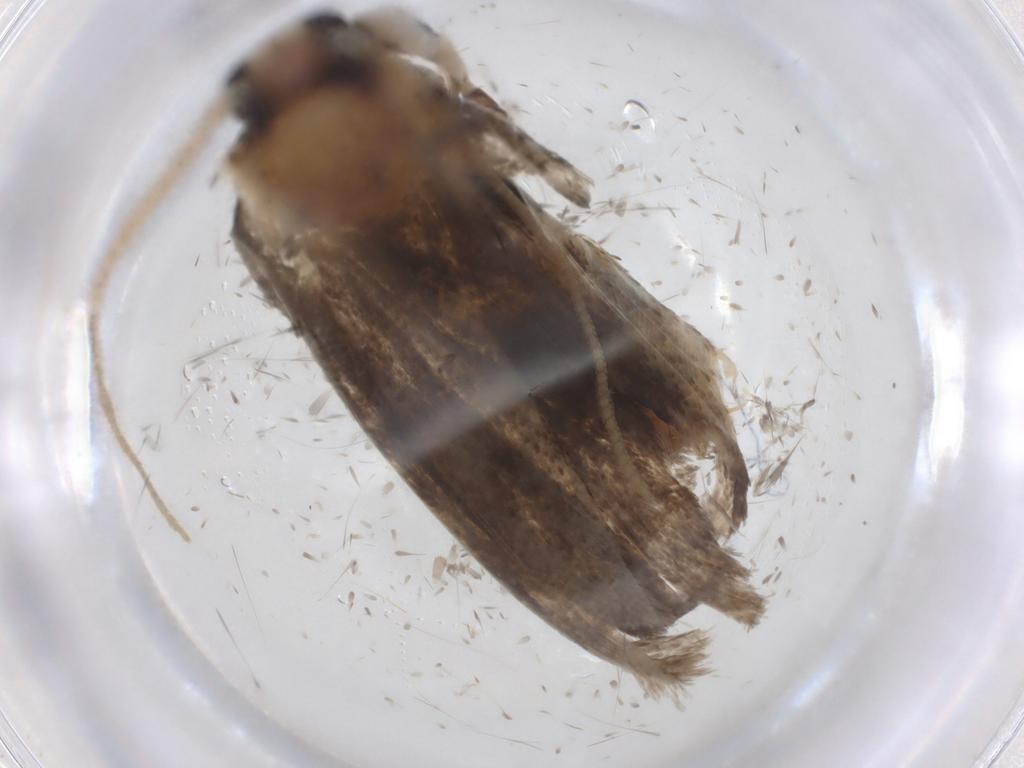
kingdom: Animalia
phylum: Arthropoda
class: Insecta
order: Lepidoptera
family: Tineidae
